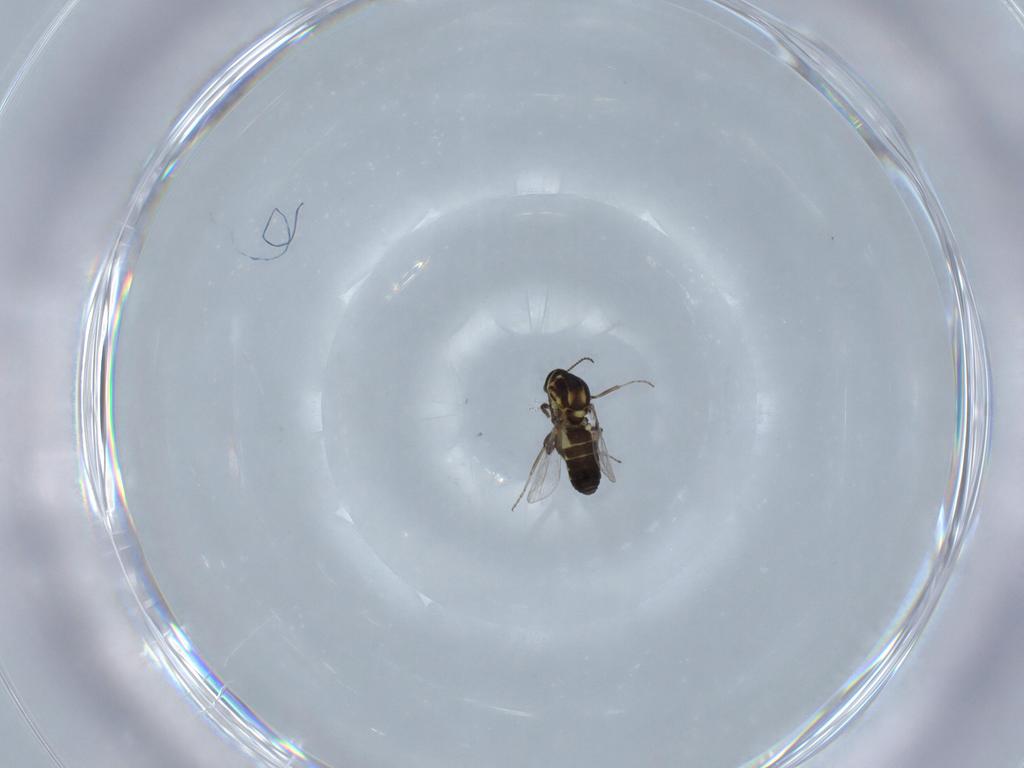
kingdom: Animalia
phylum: Arthropoda
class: Insecta
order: Diptera
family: Ceratopogonidae
